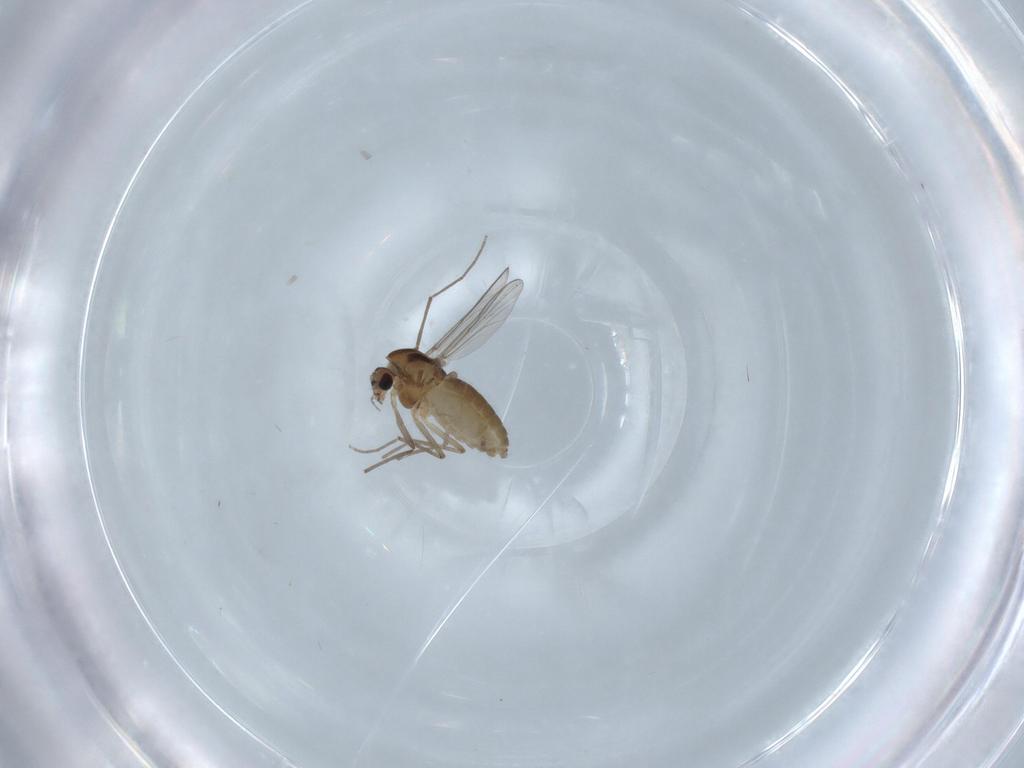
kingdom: Animalia
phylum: Arthropoda
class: Insecta
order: Diptera
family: Chironomidae
